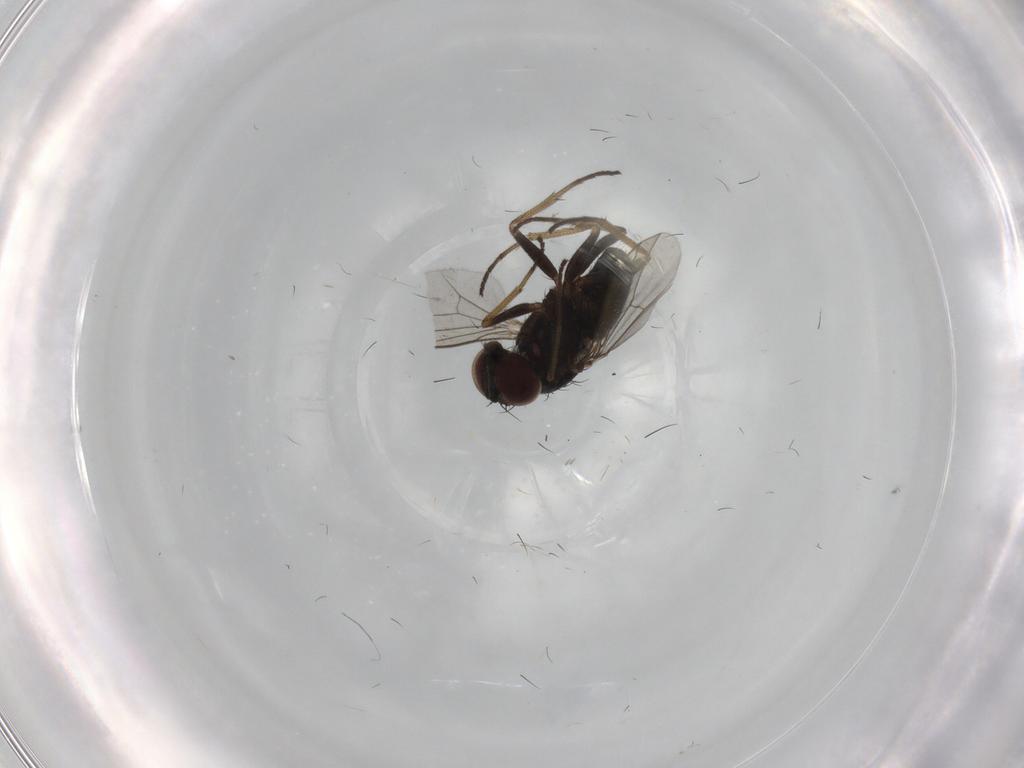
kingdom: Animalia
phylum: Arthropoda
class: Insecta
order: Diptera
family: Dolichopodidae
